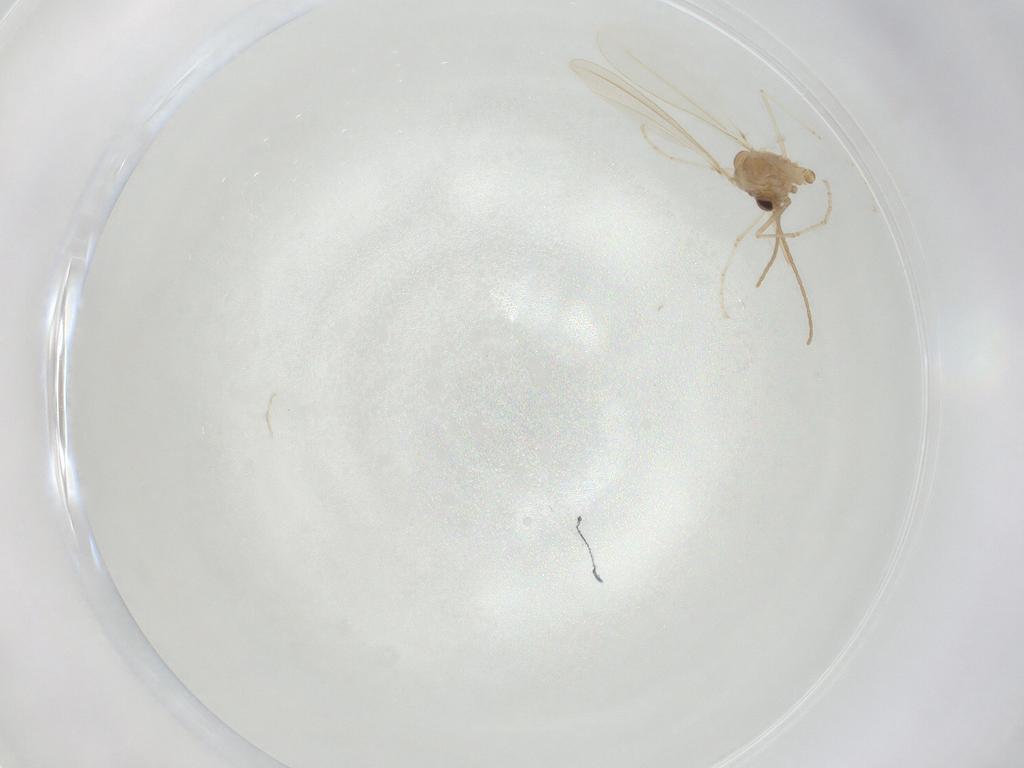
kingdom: Animalia
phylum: Arthropoda
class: Insecta
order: Diptera
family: Cecidomyiidae
